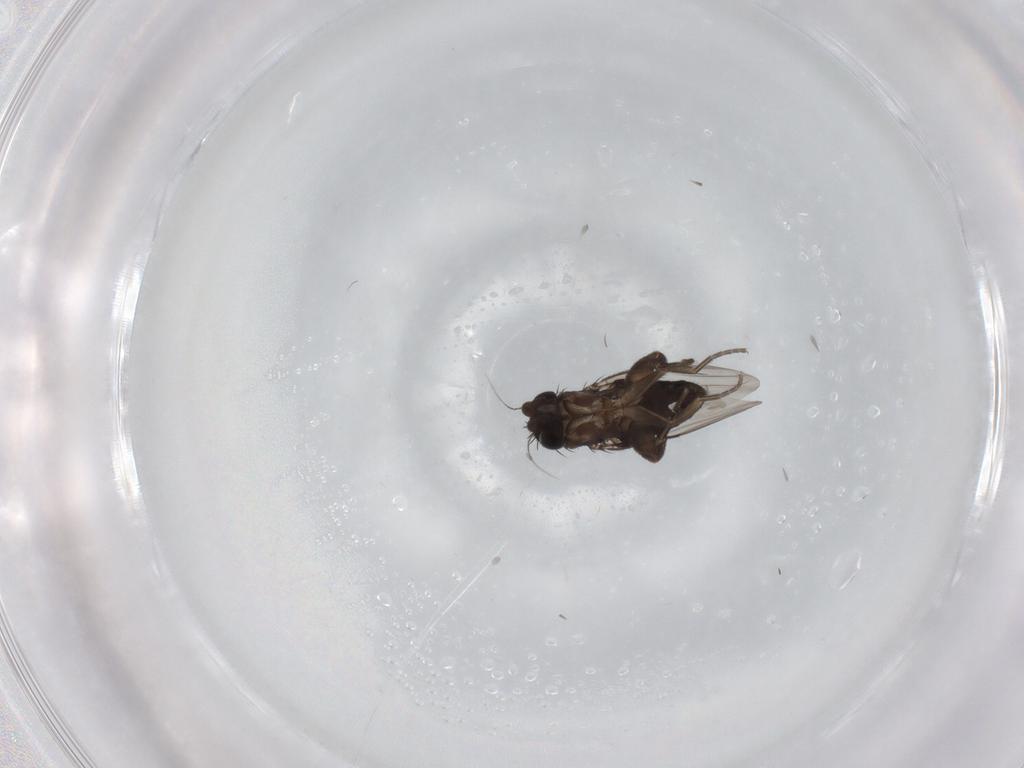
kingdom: Animalia
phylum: Arthropoda
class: Insecta
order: Diptera
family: Phoridae
